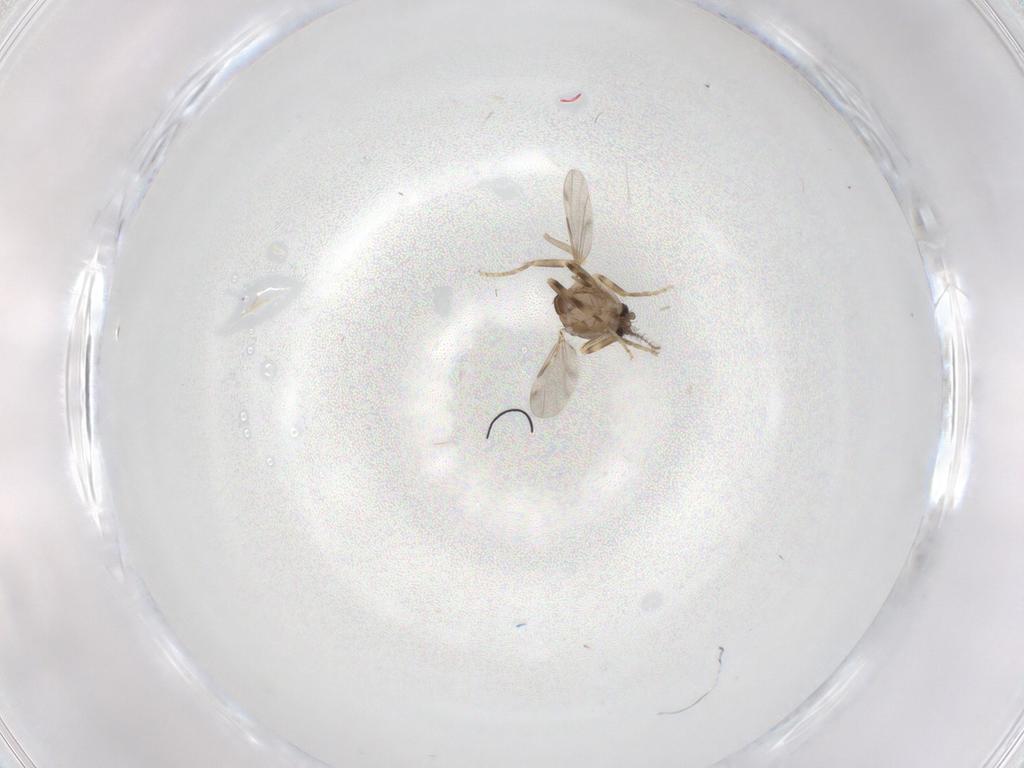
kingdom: Animalia
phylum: Arthropoda
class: Insecta
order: Diptera
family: Ceratopogonidae
